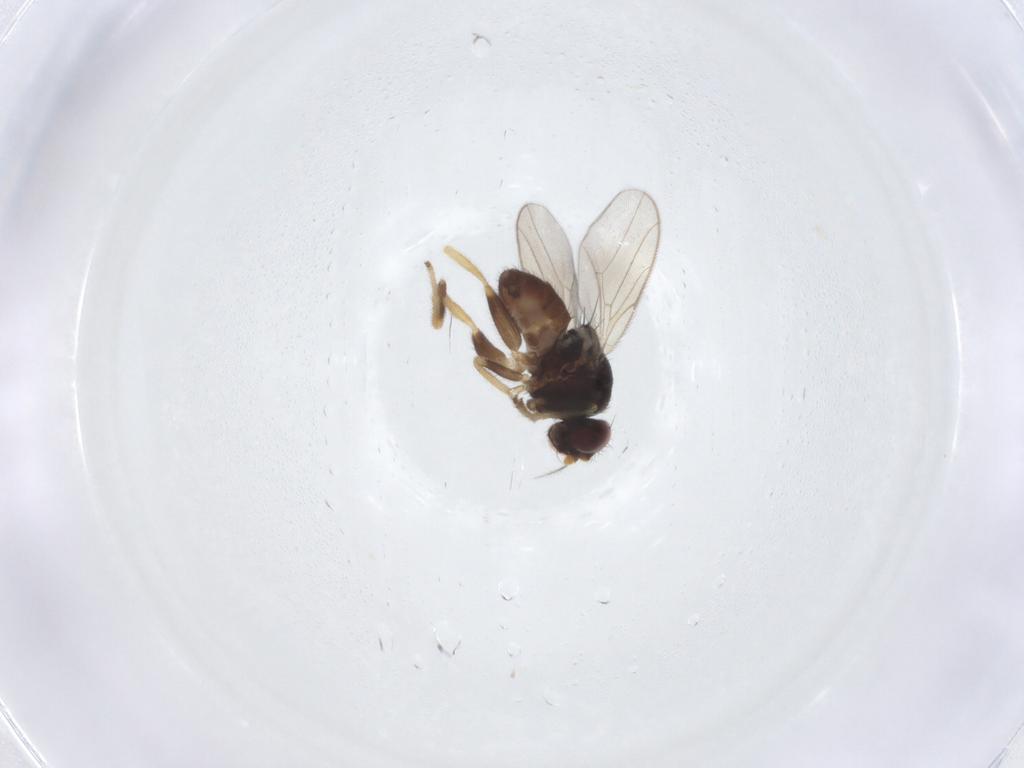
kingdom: Animalia
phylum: Arthropoda
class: Insecta
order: Diptera
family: Chloropidae
